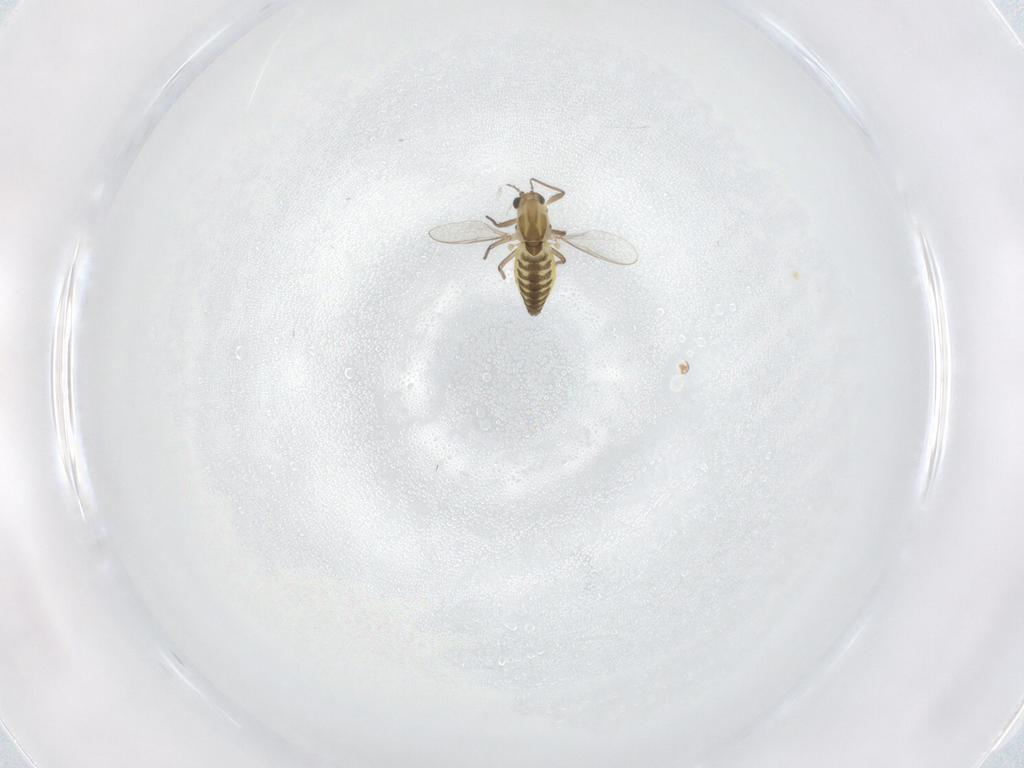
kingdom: Animalia
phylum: Arthropoda
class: Insecta
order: Diptera
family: Chironomidae
